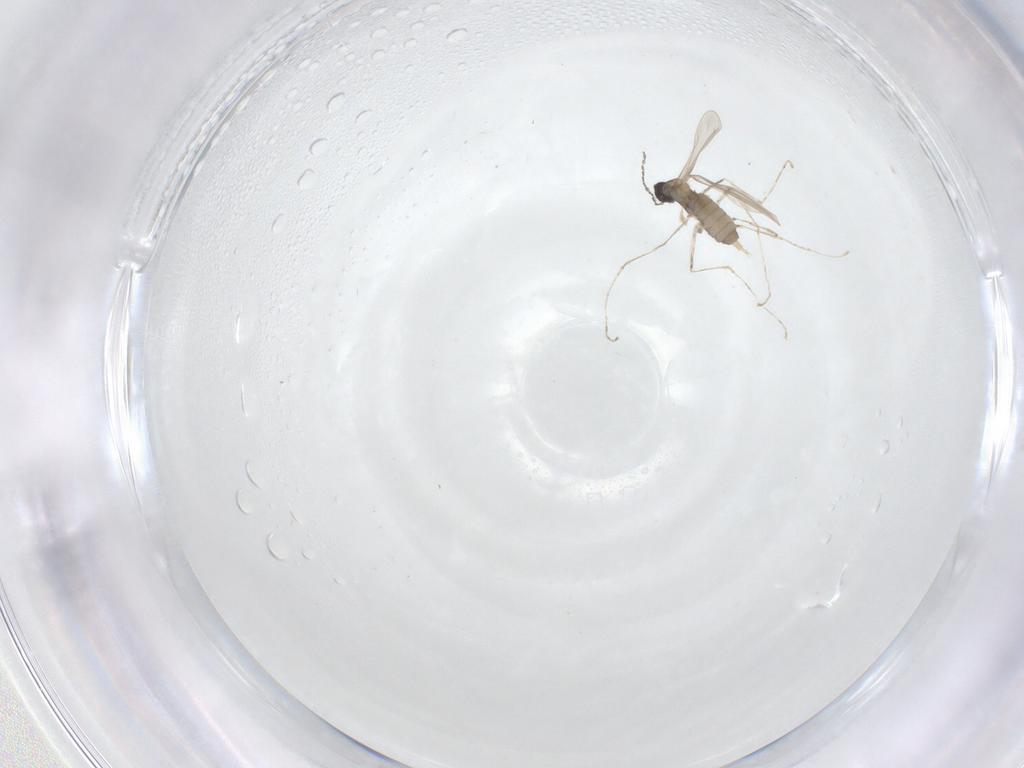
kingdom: Animalia
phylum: Arthropoda
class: Insecta
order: Diptera
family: Cecidomyiidae
